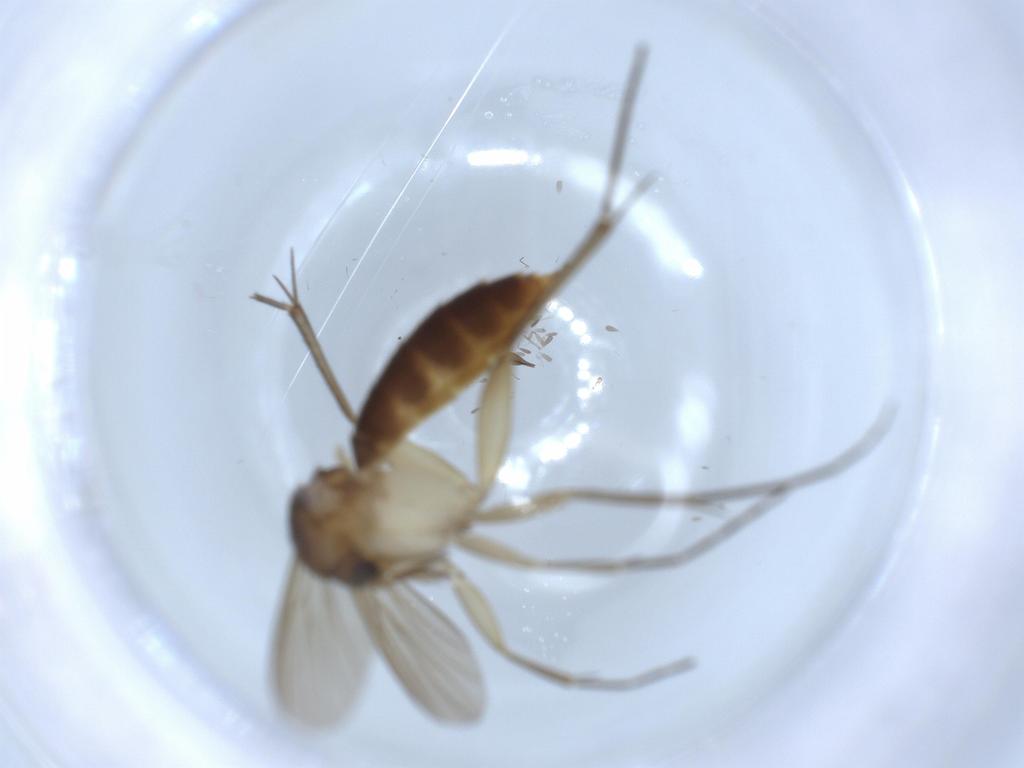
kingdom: Animalia
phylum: Arthropoda
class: Insecta
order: Diptera
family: Mycetophilidae
